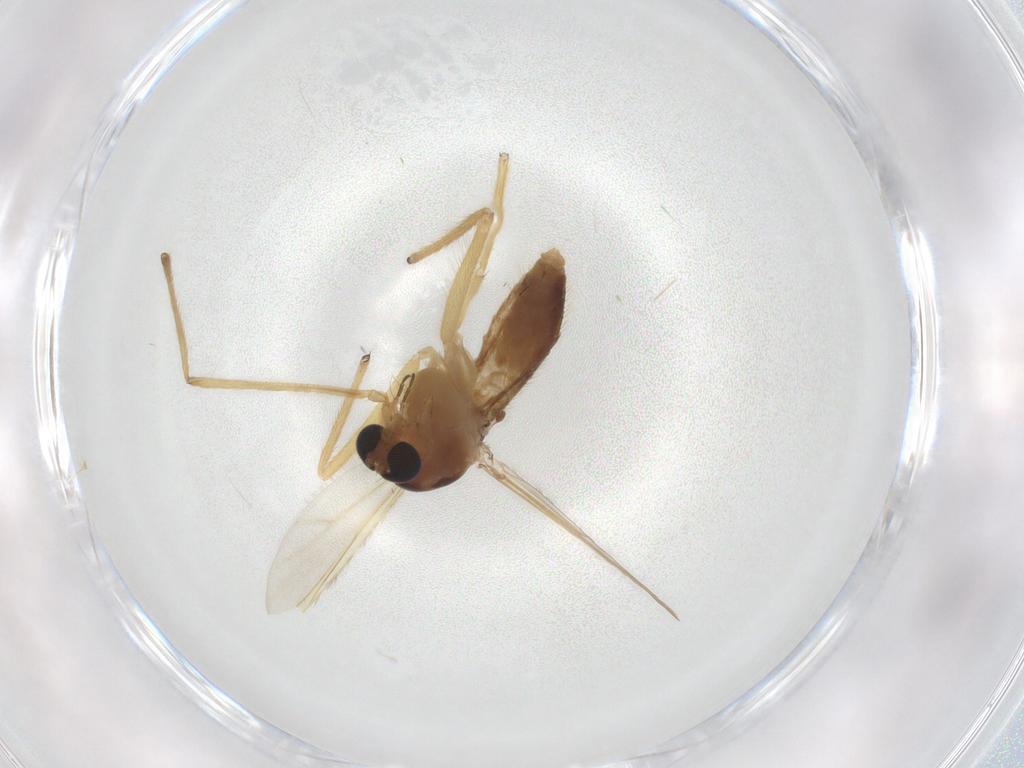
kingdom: Animalia
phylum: Arthropoda
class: Insecta
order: Diptera
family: Chironomidae
